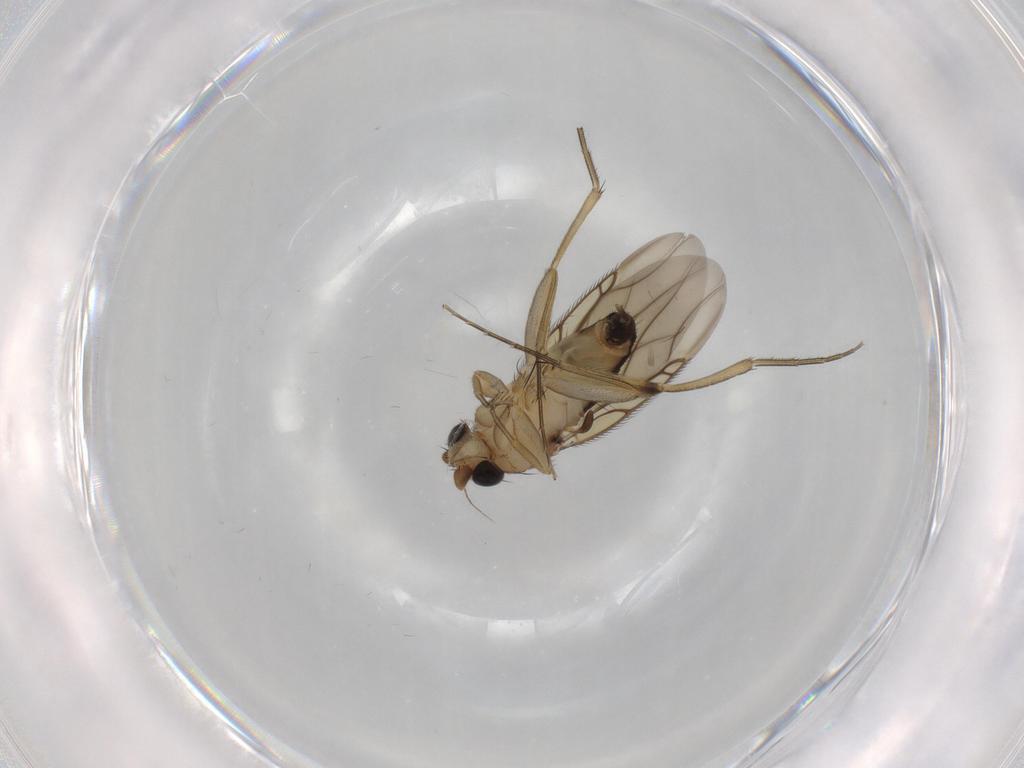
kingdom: Animalia
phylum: Arthropoda
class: Insecta
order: Diptera
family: Phoridae
